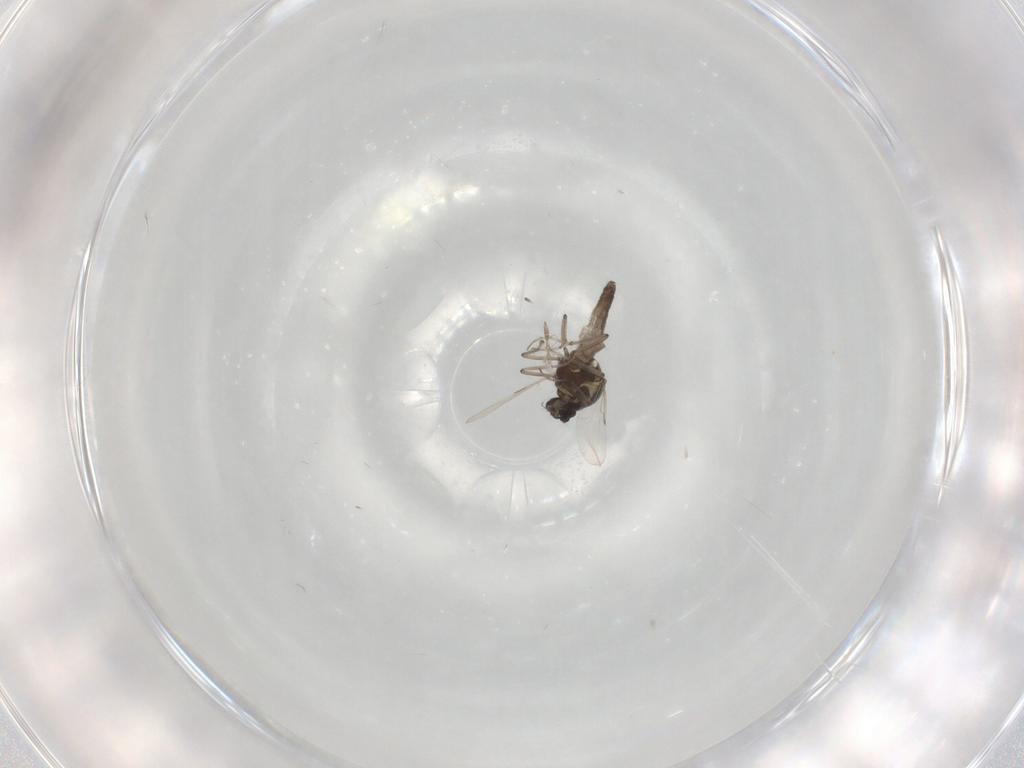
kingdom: Animalia
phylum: Arthropoda
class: Insecta
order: Diptera
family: Ceratopogonidae
